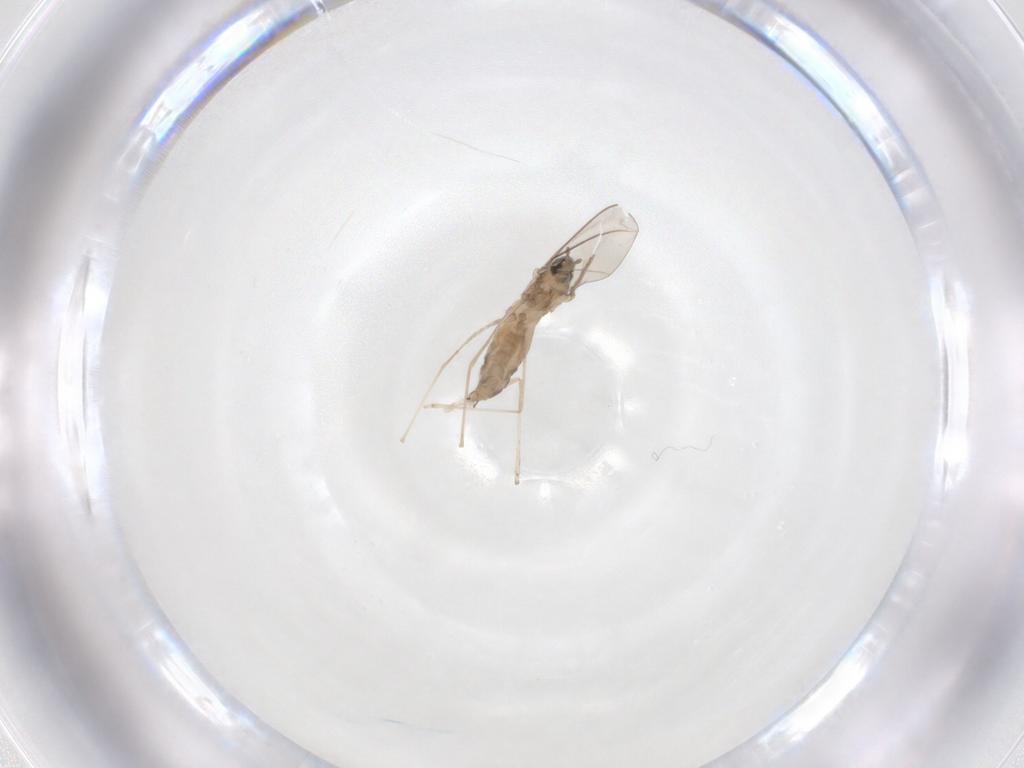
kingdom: Animalia
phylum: Arthropoda
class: Insecta
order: Diptera
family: Cecidomyiidae
